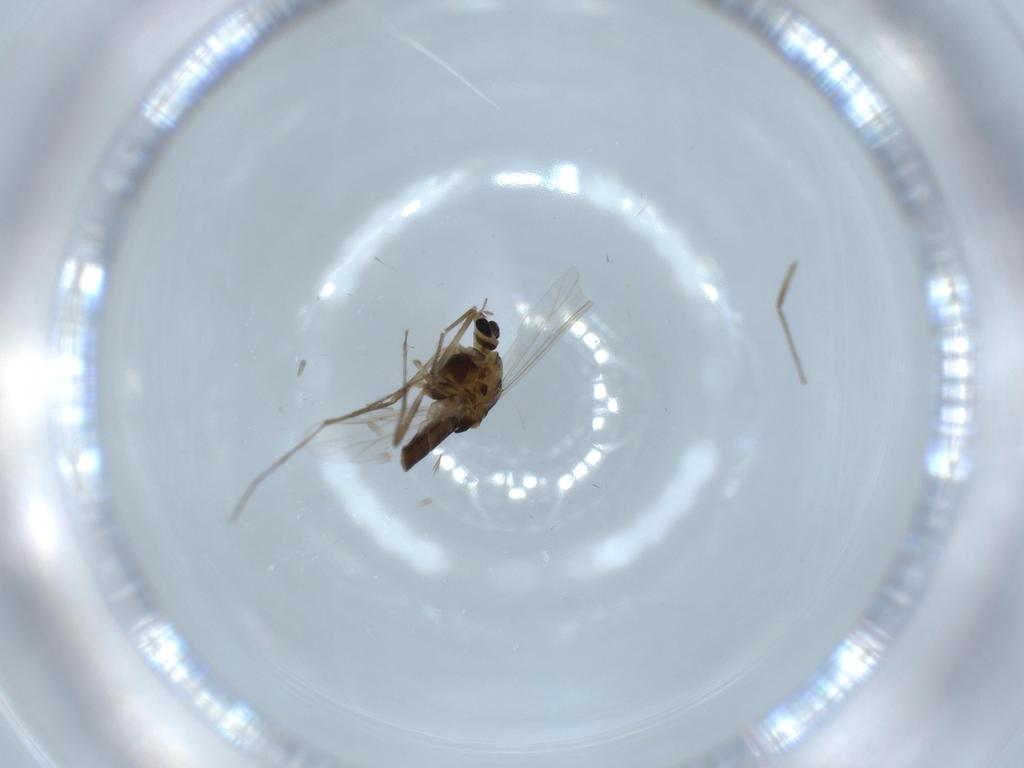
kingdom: Animalia
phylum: Arthropoda
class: Insecta
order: Diptera
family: Chironomidae
